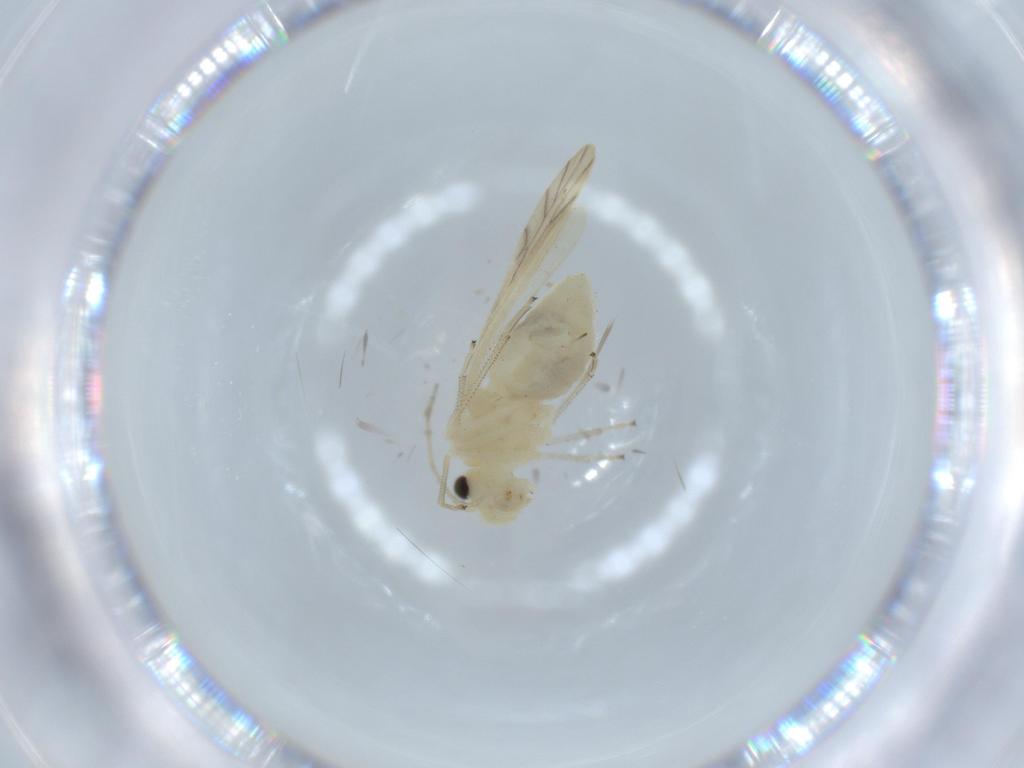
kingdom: Animalia
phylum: Arthropoda
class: Insecta
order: Psocodea
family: Caeciliusidae
